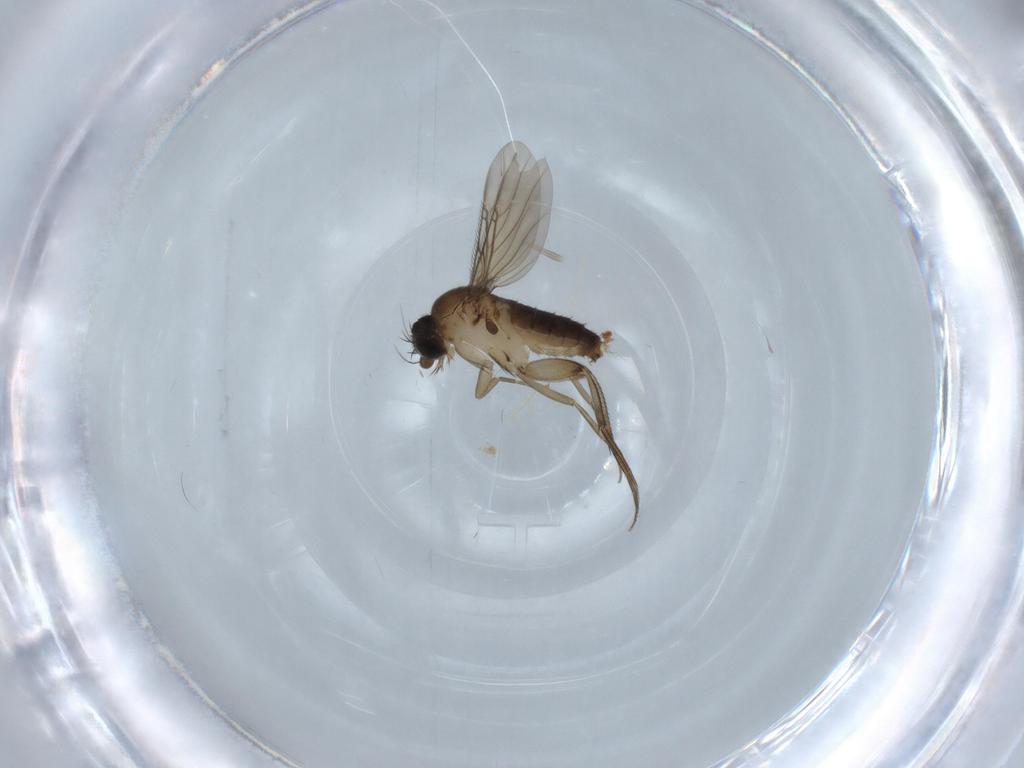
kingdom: Animalia
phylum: Arthropoda
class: Insecta
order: Diptera
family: Phoridae
